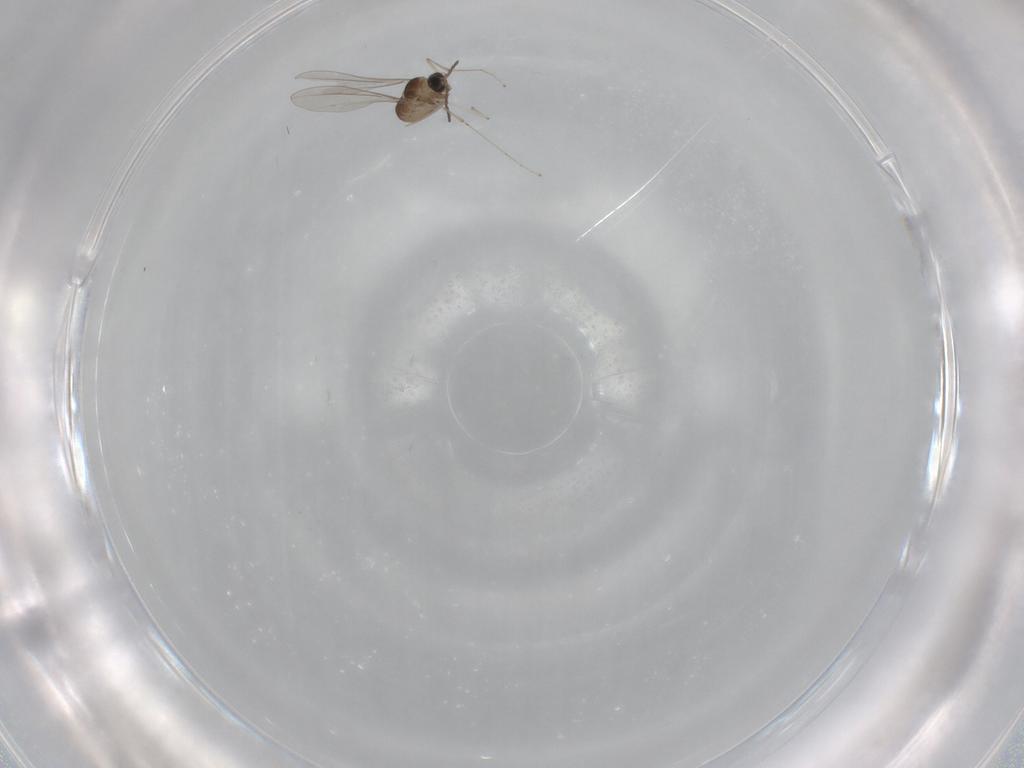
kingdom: Animalia
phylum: Arthropoda
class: Insecta
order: Diptera
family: Cecidomyiidae
